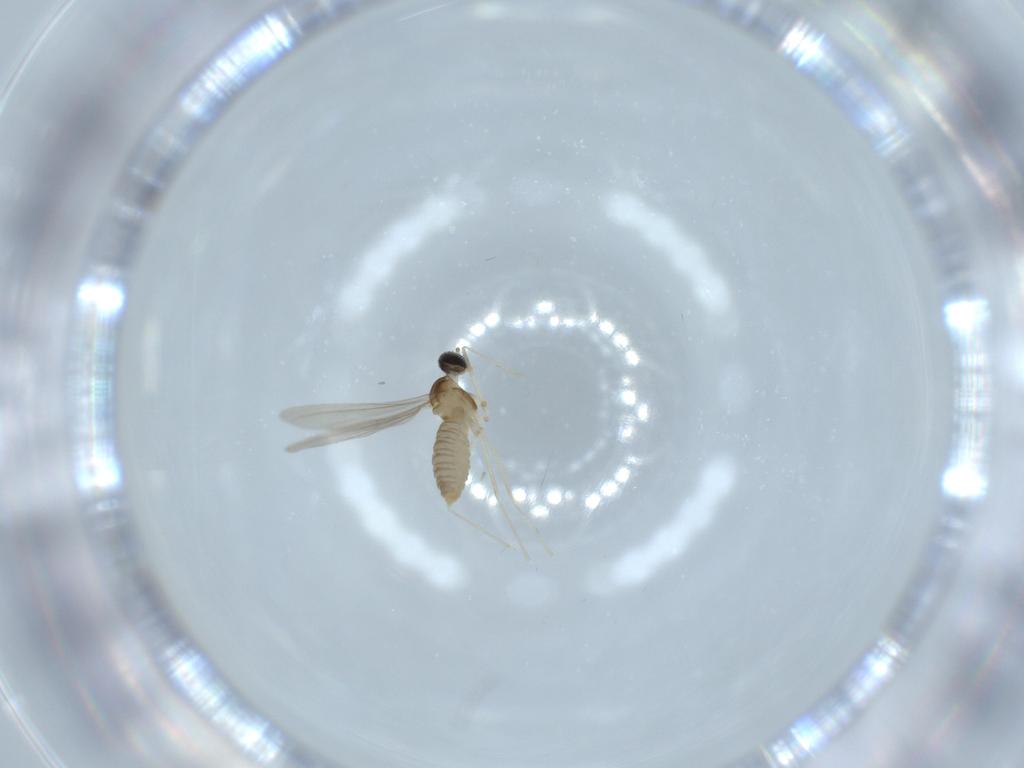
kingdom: Animalia
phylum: Arthropoda
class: Insecta
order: Diptera
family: Cecidomyiidae
